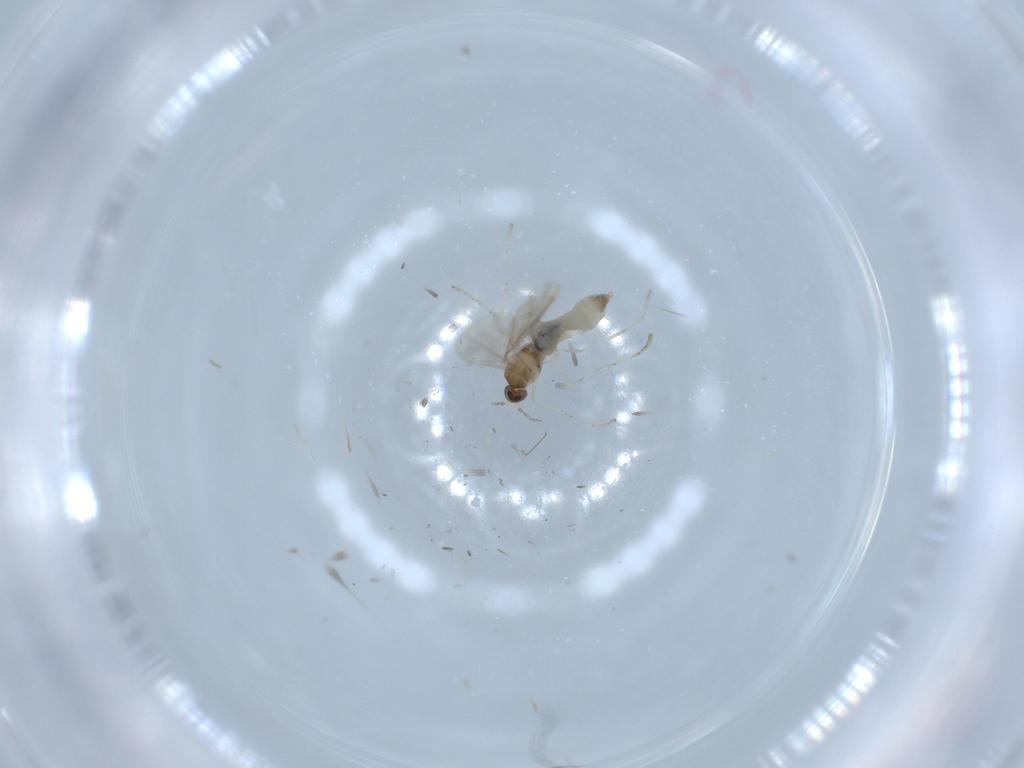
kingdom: Animalia
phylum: Arthropoda
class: Insecta
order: Diptera
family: Cecidomyiidae
